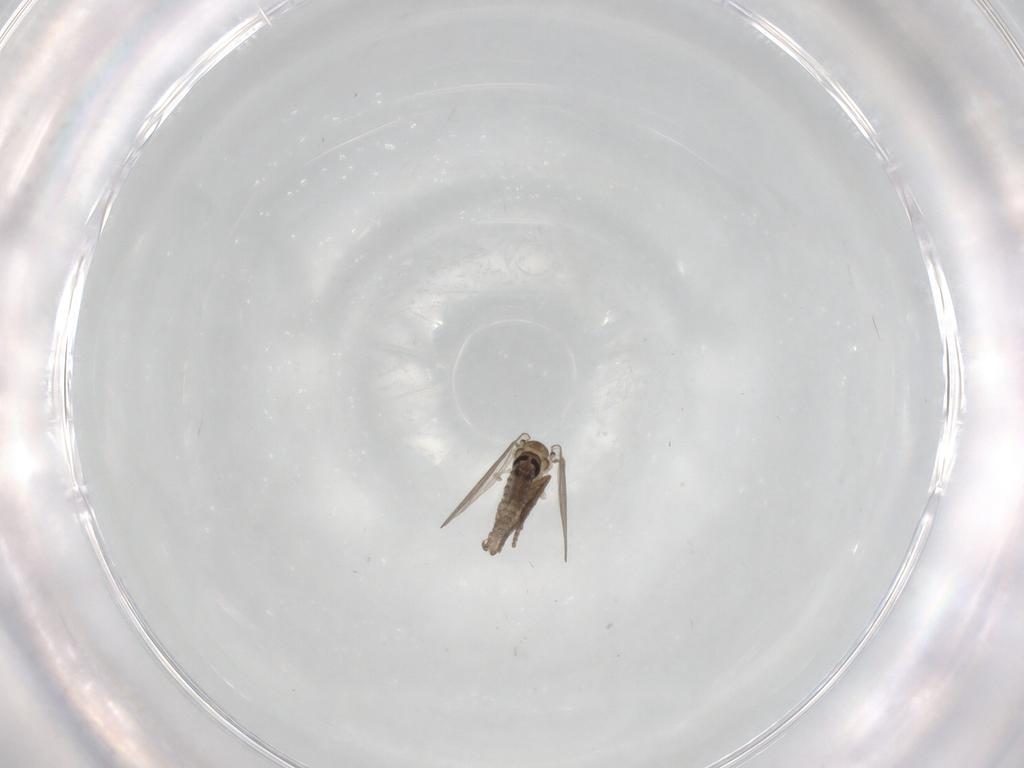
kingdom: Animalia
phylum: Arthropoda
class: Insecta
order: Diptera
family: Psychodidae
